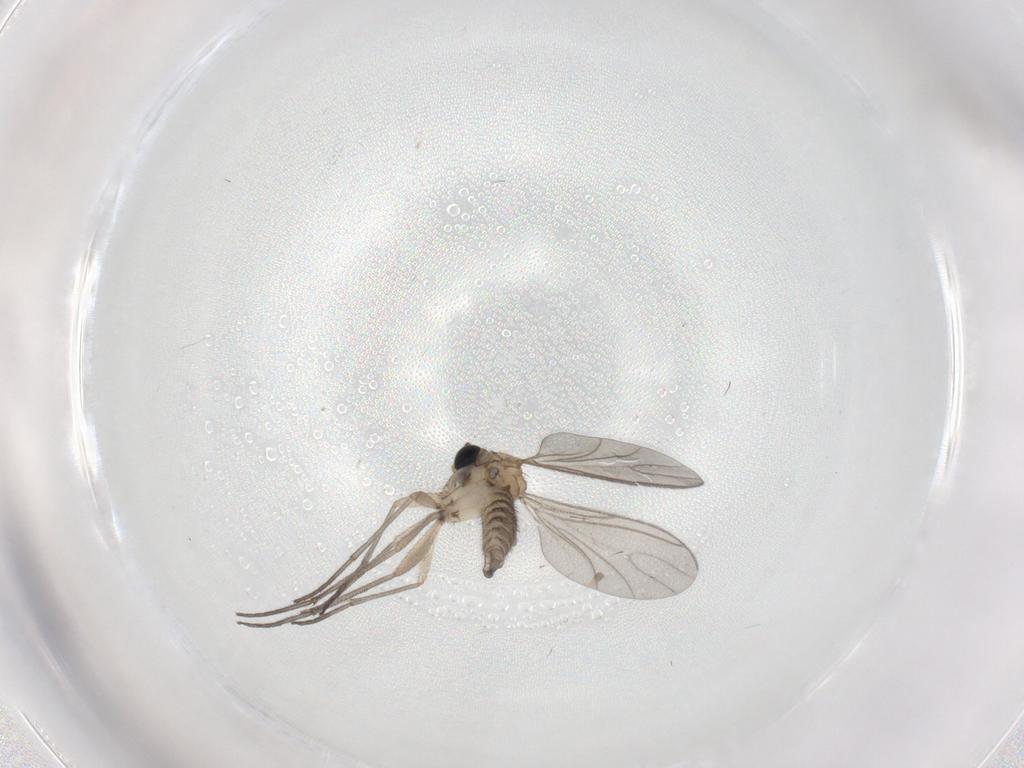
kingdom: Animalia
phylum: Arthropoda
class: Insecta
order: Diptera
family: Sciaridae
